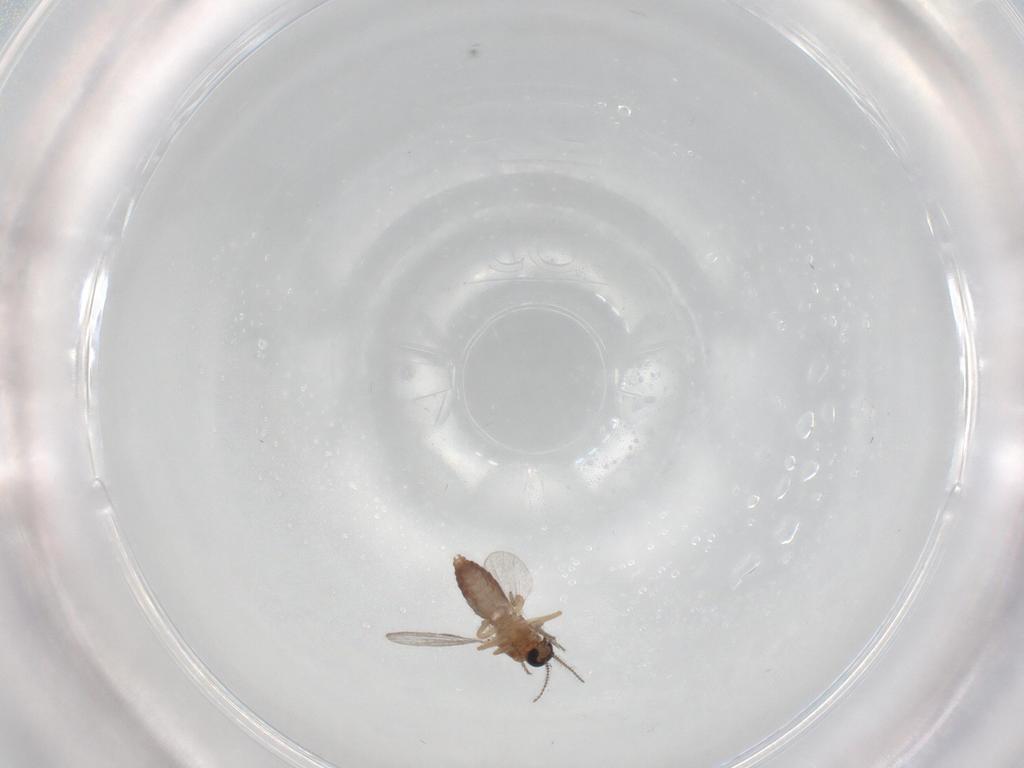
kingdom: Animalia
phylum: Arthropoda
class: Insecta
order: Diptera
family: Ceratopogonidae
